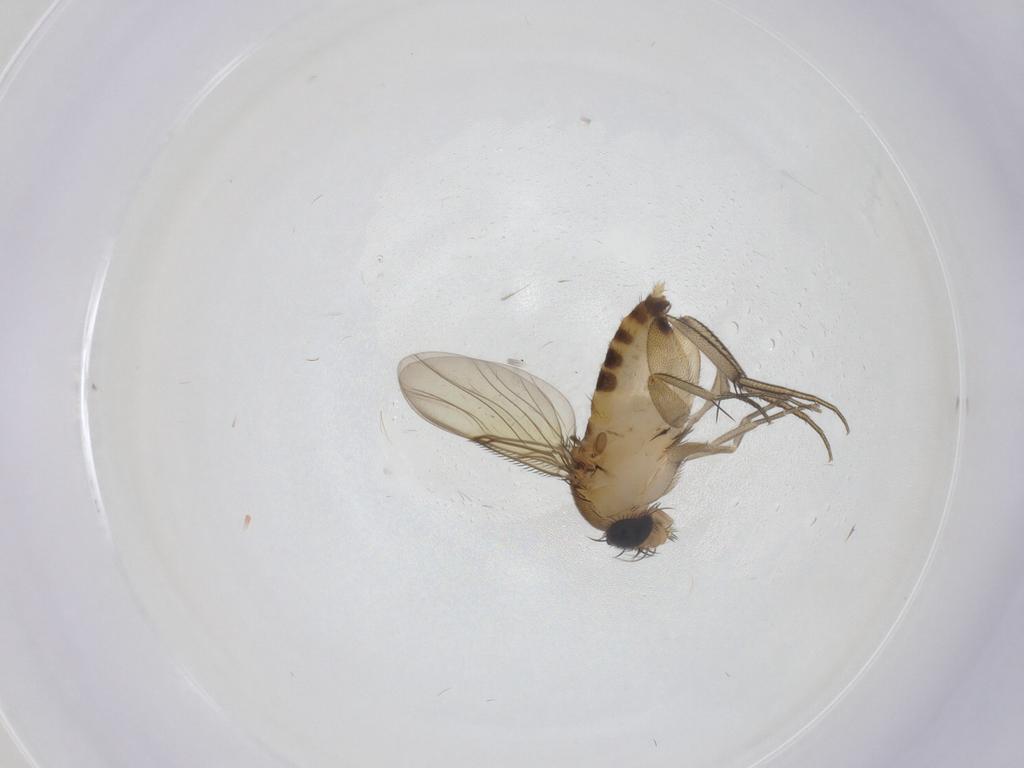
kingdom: Animalia
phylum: Arthropoda
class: Insecta
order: Diptera
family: Phoridae
